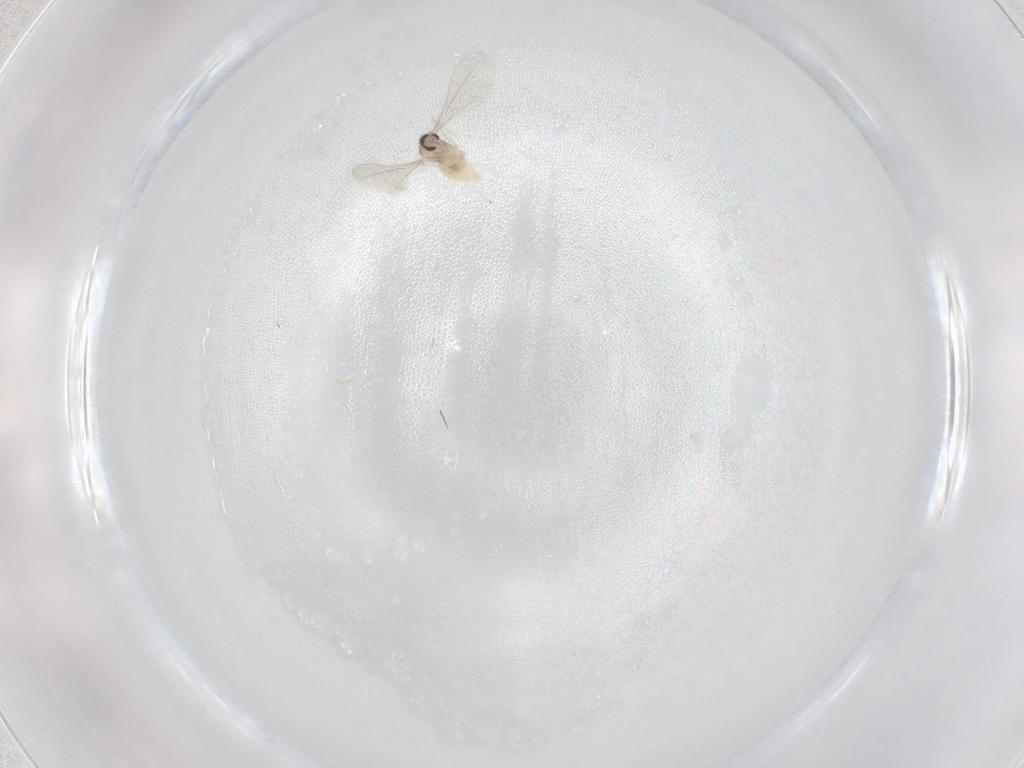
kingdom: Animalia
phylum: Arthropoda
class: Insecta
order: Diptera
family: Cecidomyiidae
